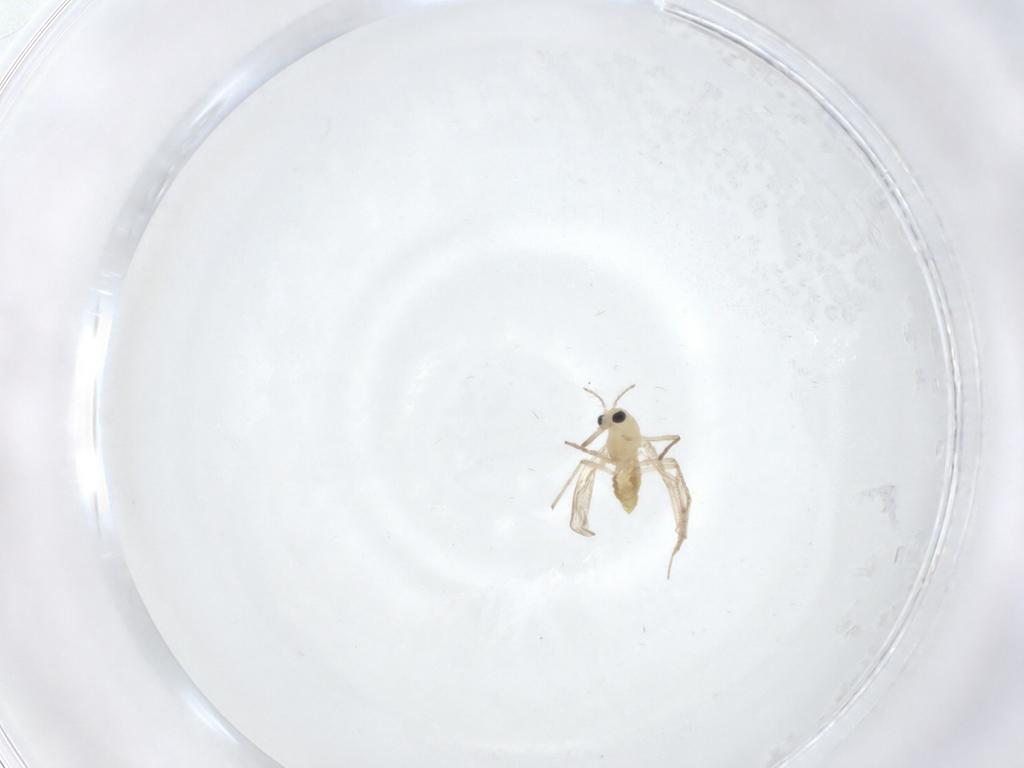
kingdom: Animalia
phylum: Arthropoda
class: Insecta
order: Diptera
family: Chironomidae
